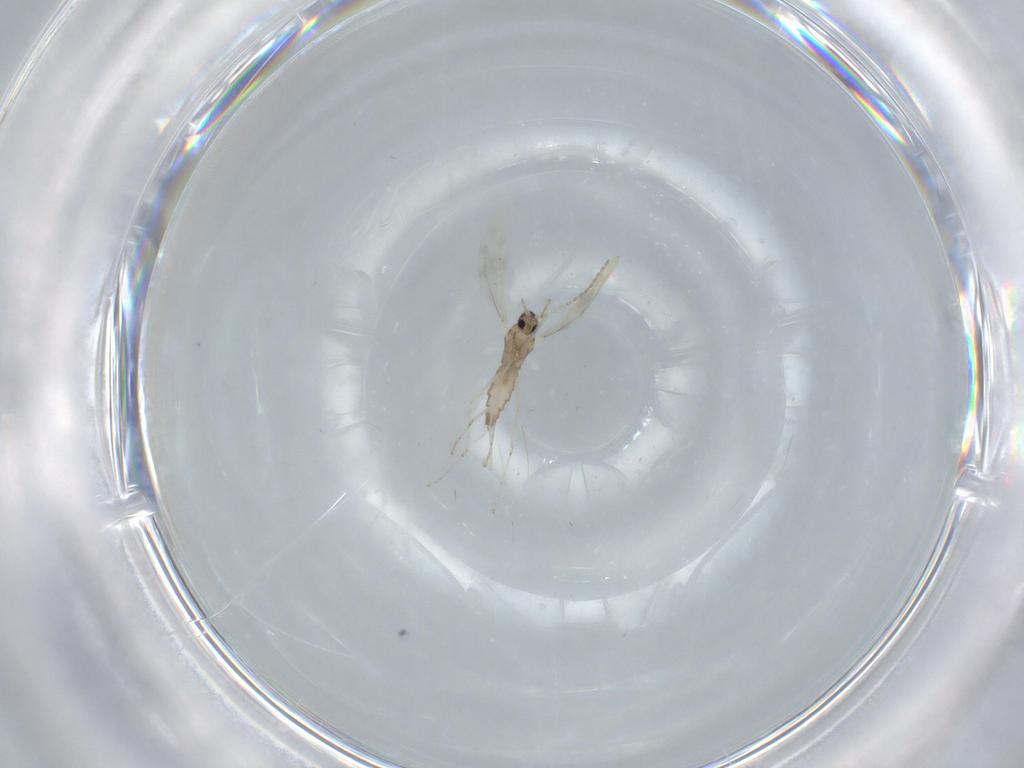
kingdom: Animalia
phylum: Arthropoda
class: Insecta
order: Diptera
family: Cecidomyiidae
